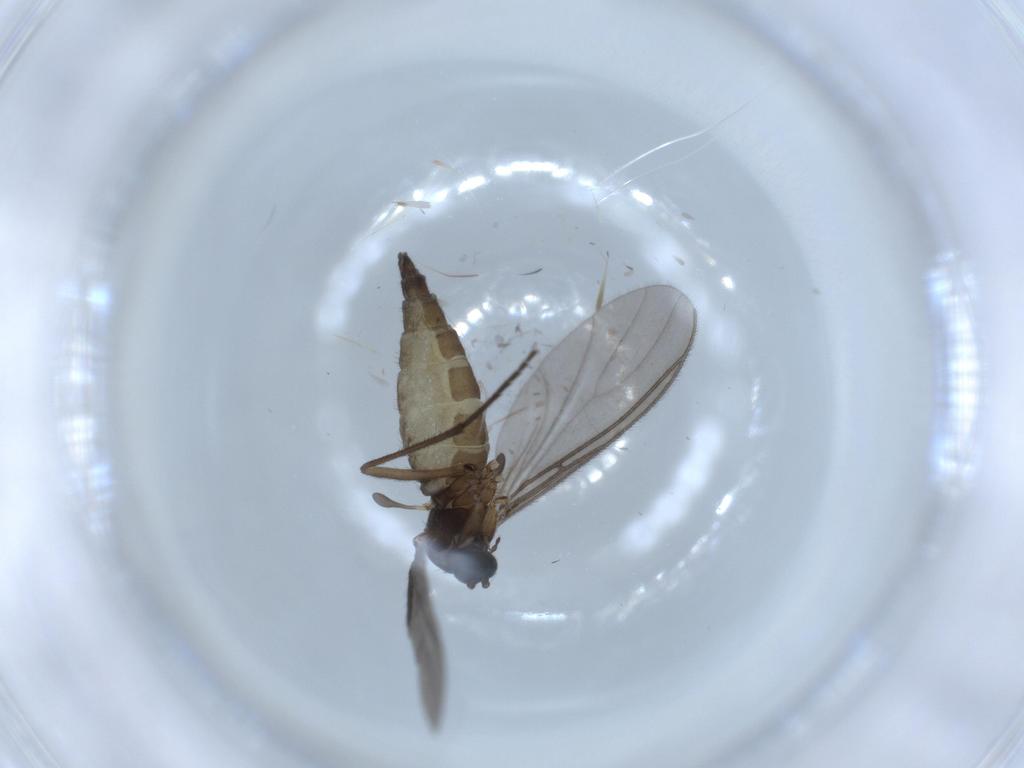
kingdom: Animalia
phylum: Arthropoda
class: Insecta
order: Diptera
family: Sciaridae
